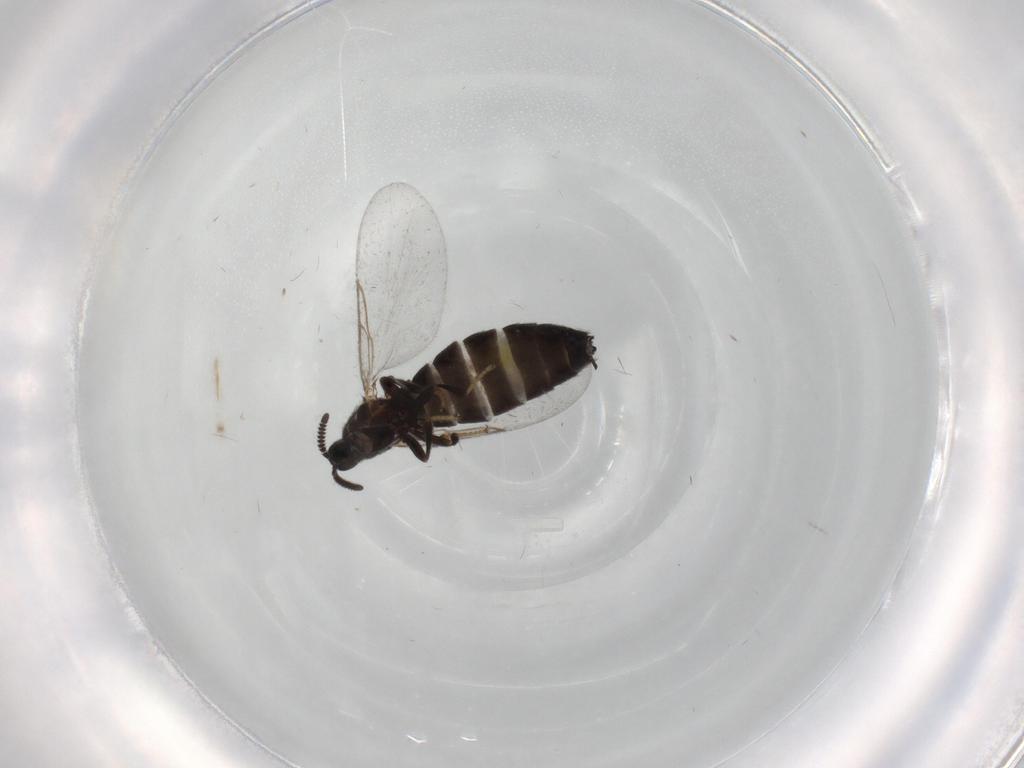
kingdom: Animalia
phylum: Arthropoda
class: Insecta
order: Diptera
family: Scatopsidae
